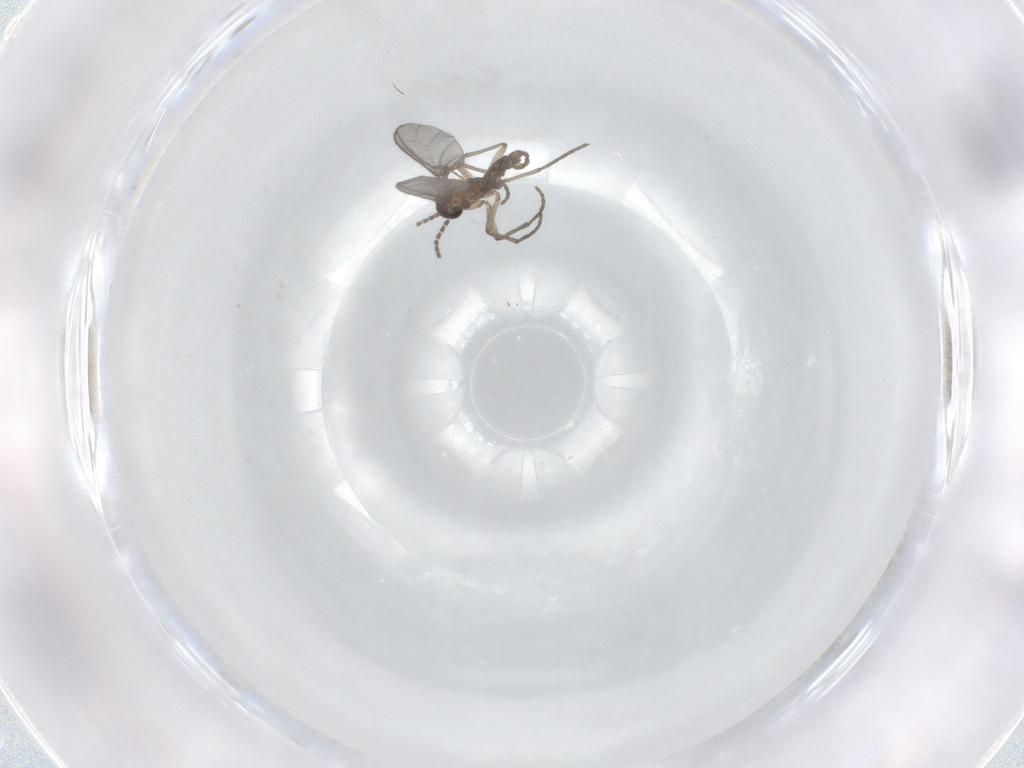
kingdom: Animalia
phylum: Arthropoda
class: Insecta
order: Diptera
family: Sciaridae
